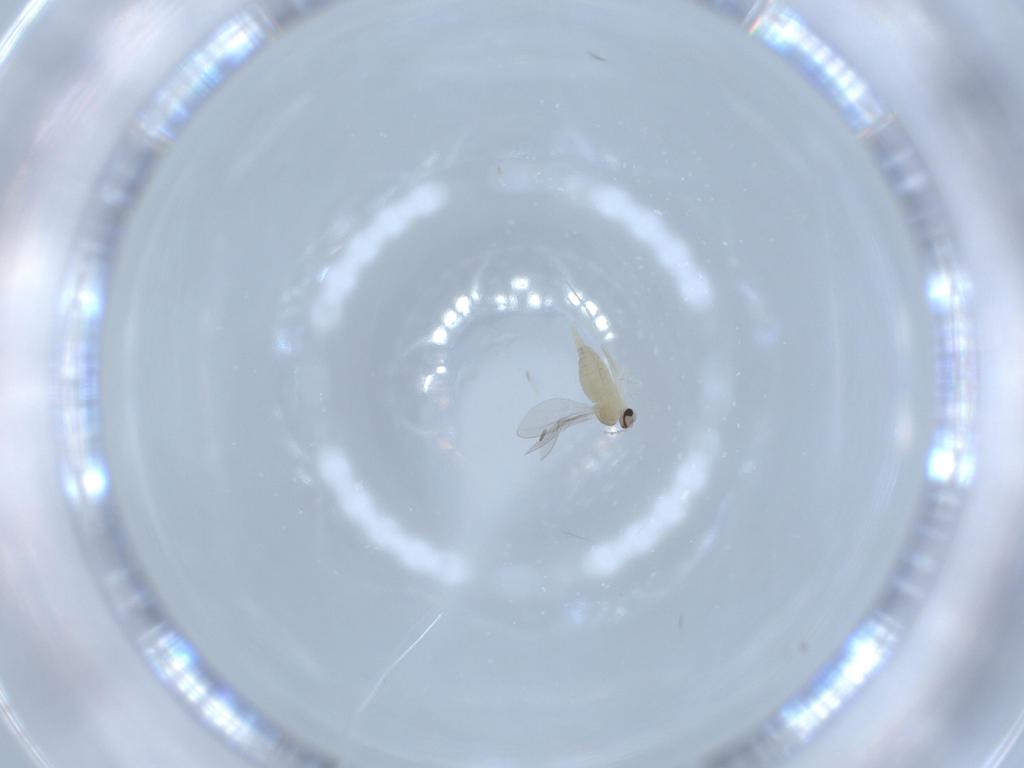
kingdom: Animalia
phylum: Arthropoda
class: Insecta
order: Diptera
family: Cecidomyiidae
